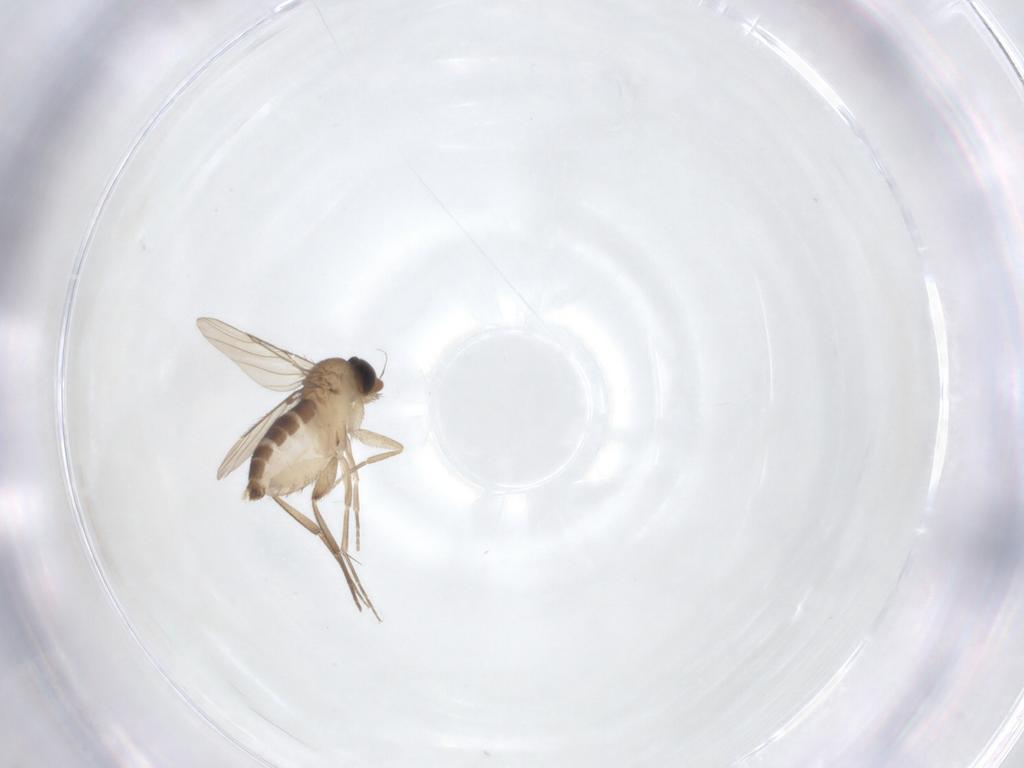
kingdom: Animalia
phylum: Arthropoda
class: Insecta
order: Diptera
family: Phoridae
